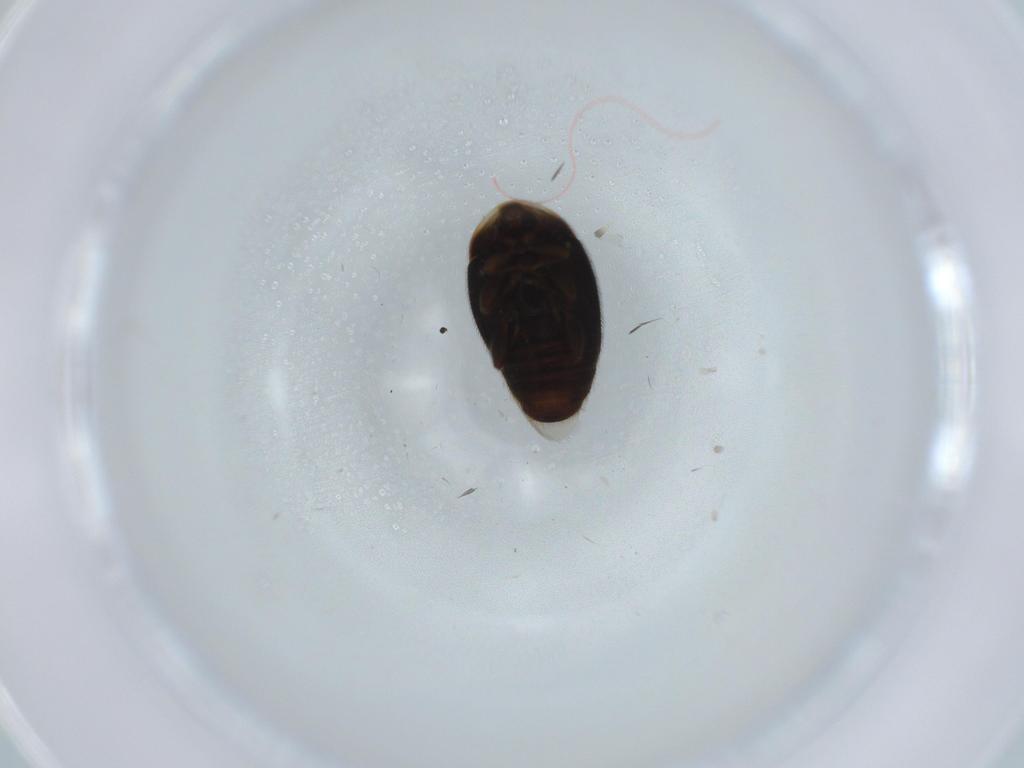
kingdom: Animalia
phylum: Arthropoda
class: Insecta
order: Coleoptera
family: Corylophidae
